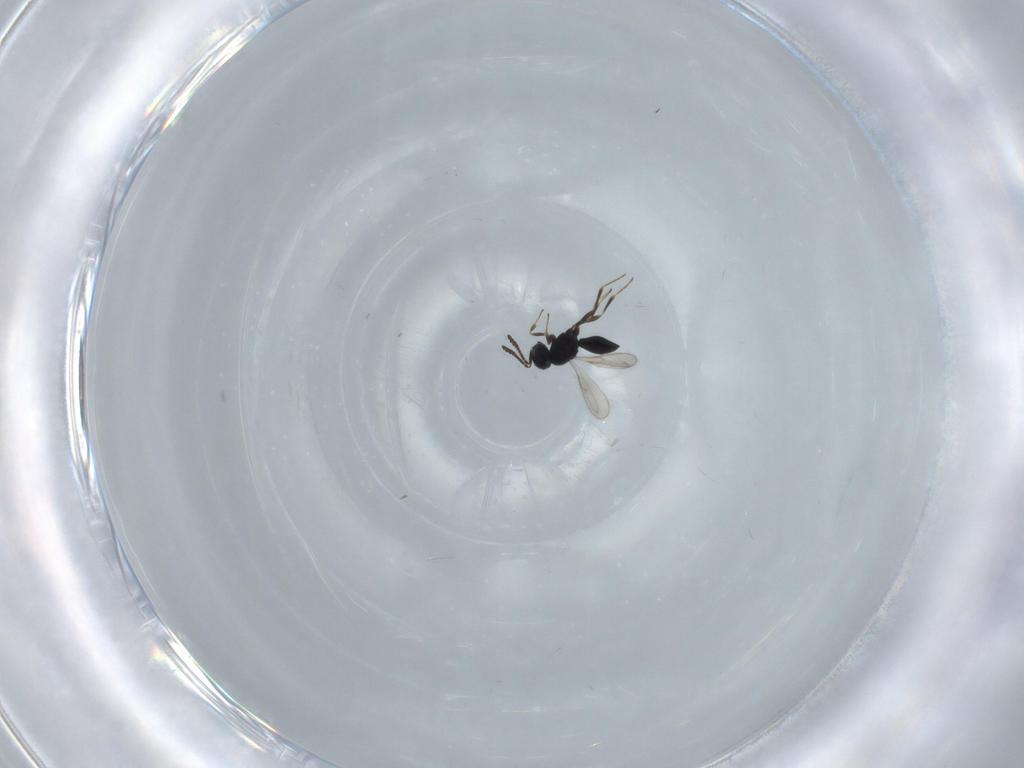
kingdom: Animalia
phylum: Arthropoda
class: Insecta
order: Hymenoptera
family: Scelionidae
